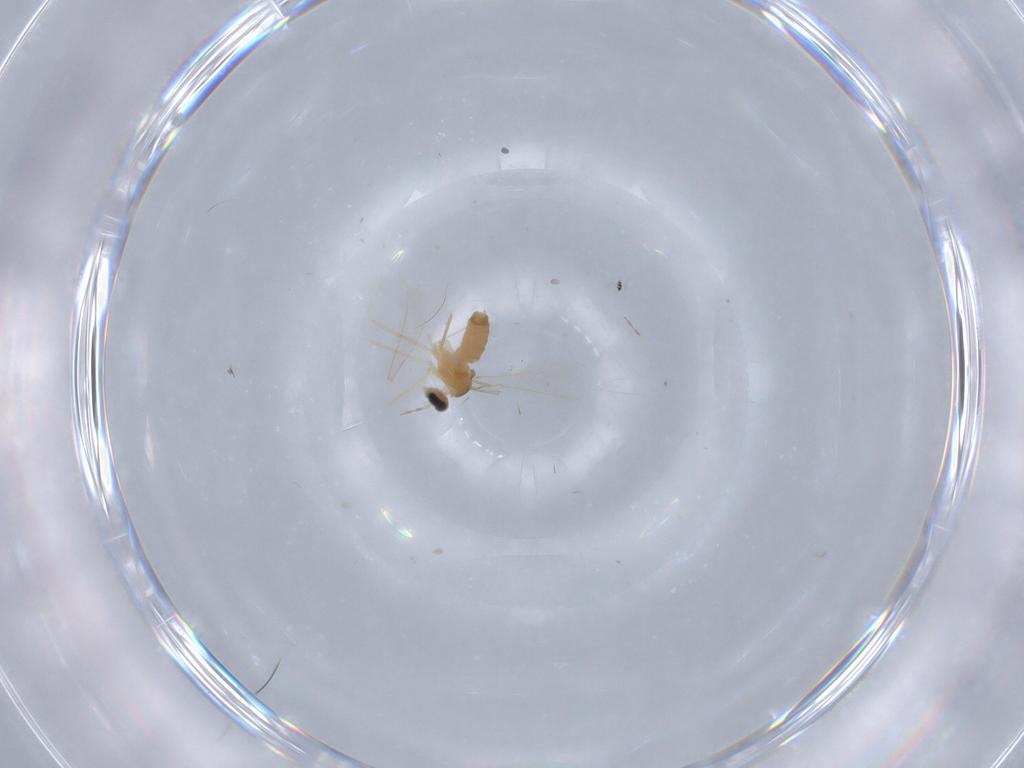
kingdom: Animalia
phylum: Arthropoda
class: Insecta
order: Diptera
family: Cecidomyiidae
